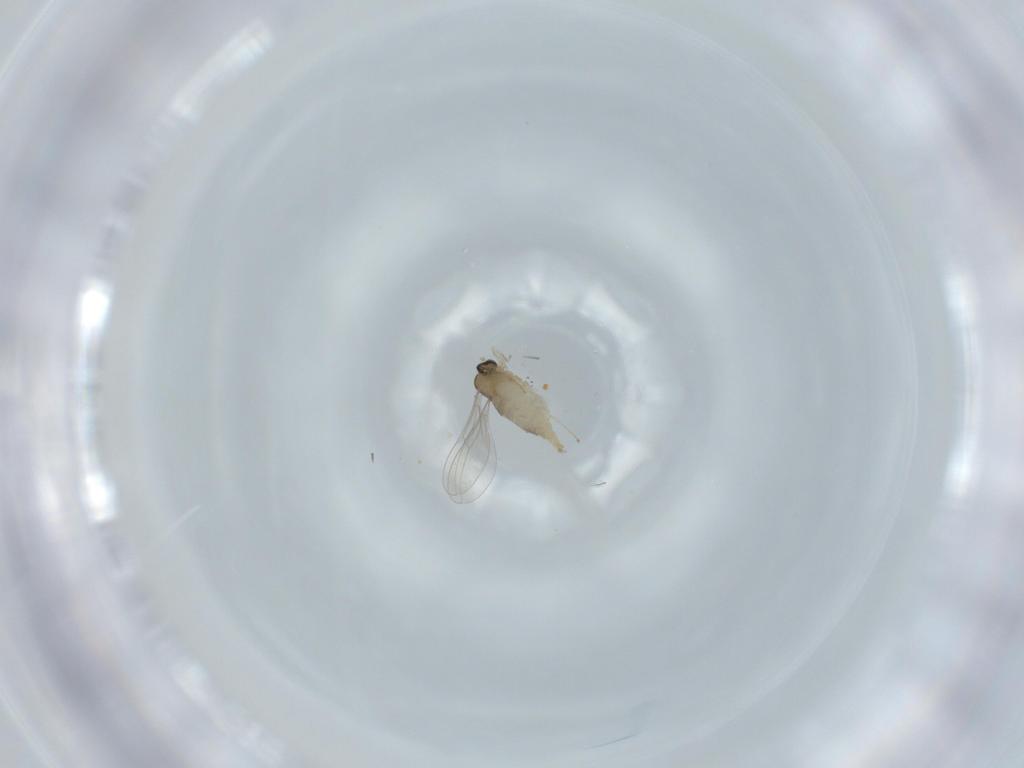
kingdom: Animalia
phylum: Arthropoda
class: Insecta
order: Diptera
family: Cecidomyiidae
